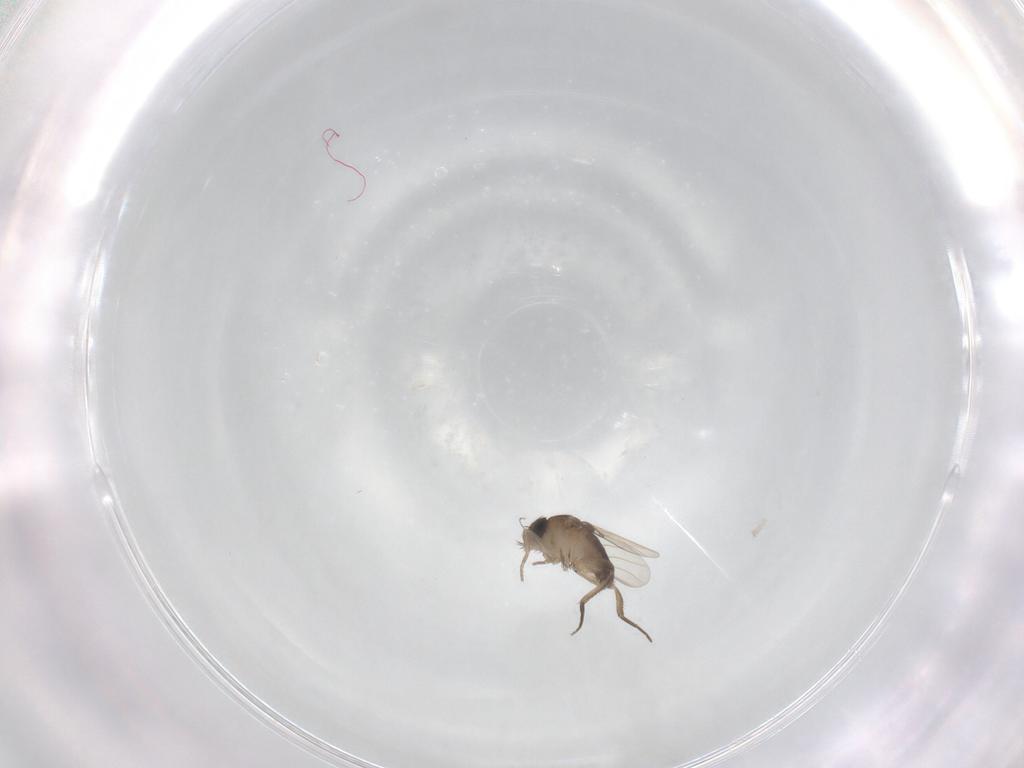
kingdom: Animalia
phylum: Arthropoda
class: Insecta
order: Diptera
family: Phoridae
